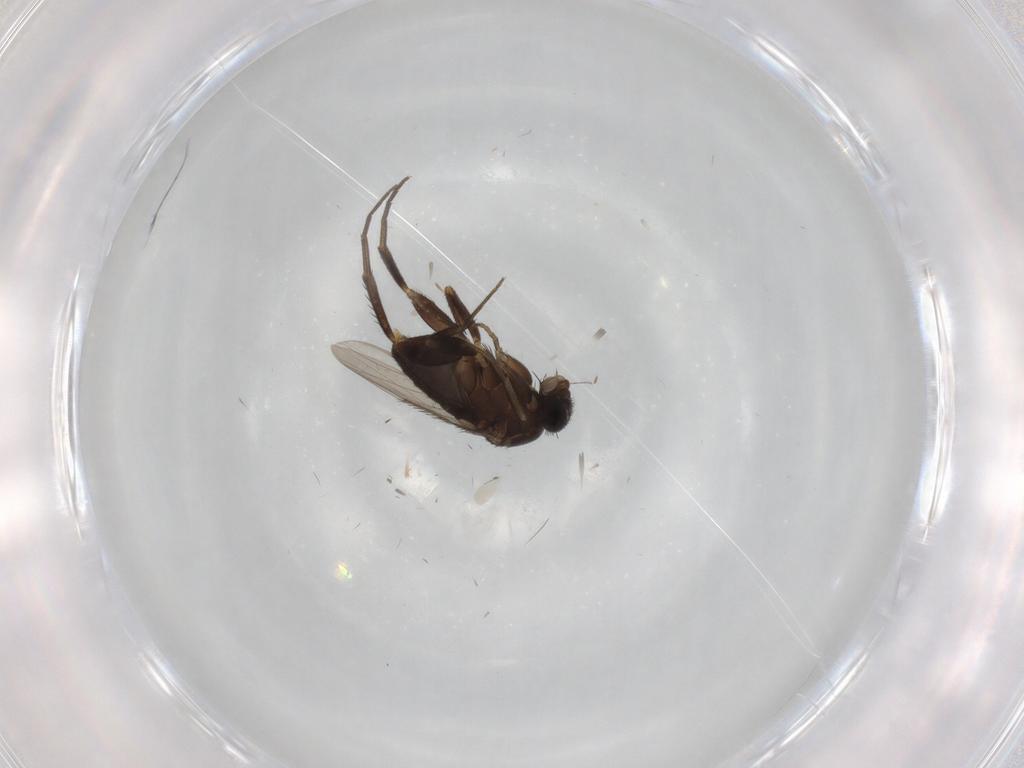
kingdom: Animalia
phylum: Arthropoda
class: Insecta
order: Diptera
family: Phoridae
